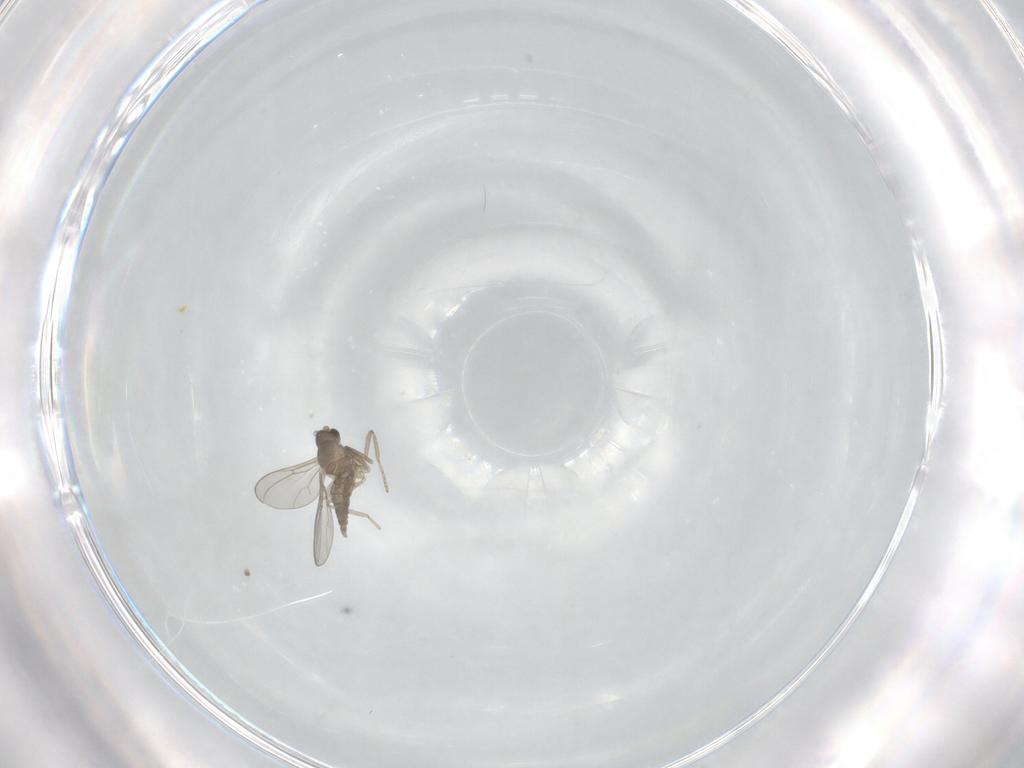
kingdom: Animalia
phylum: Arthropoda
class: Insecta
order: Diptera
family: Cecidomyiidae
